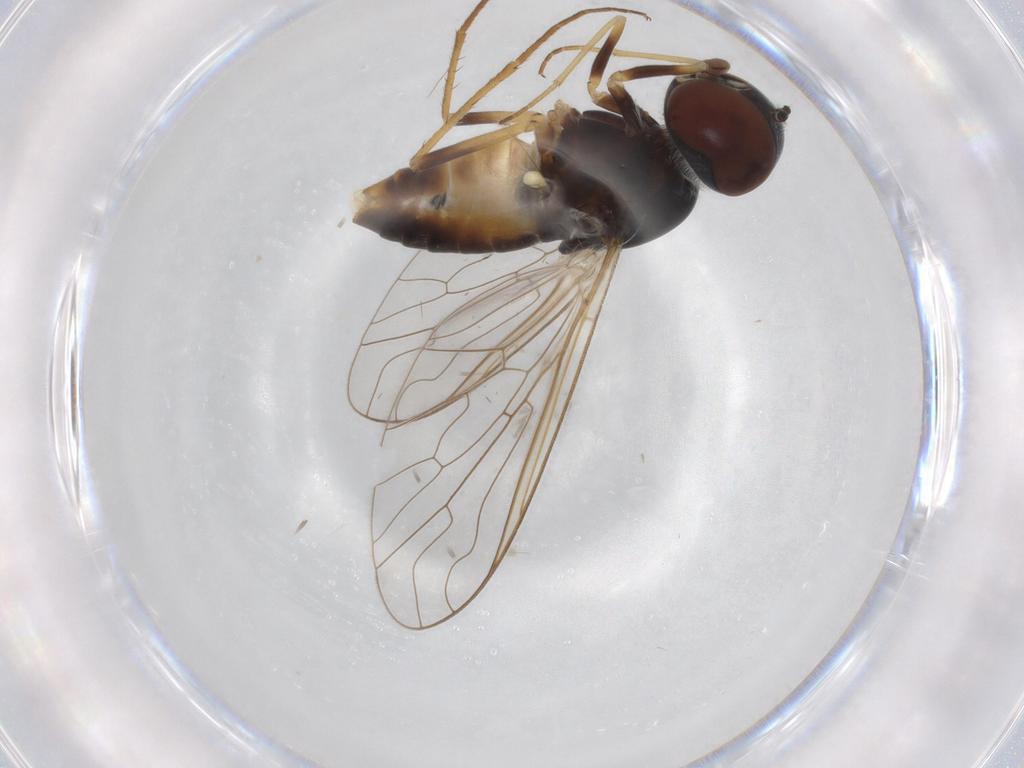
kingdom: Animalia
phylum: Arthropoda
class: Insecta
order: Diptera
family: Bombyliidae
